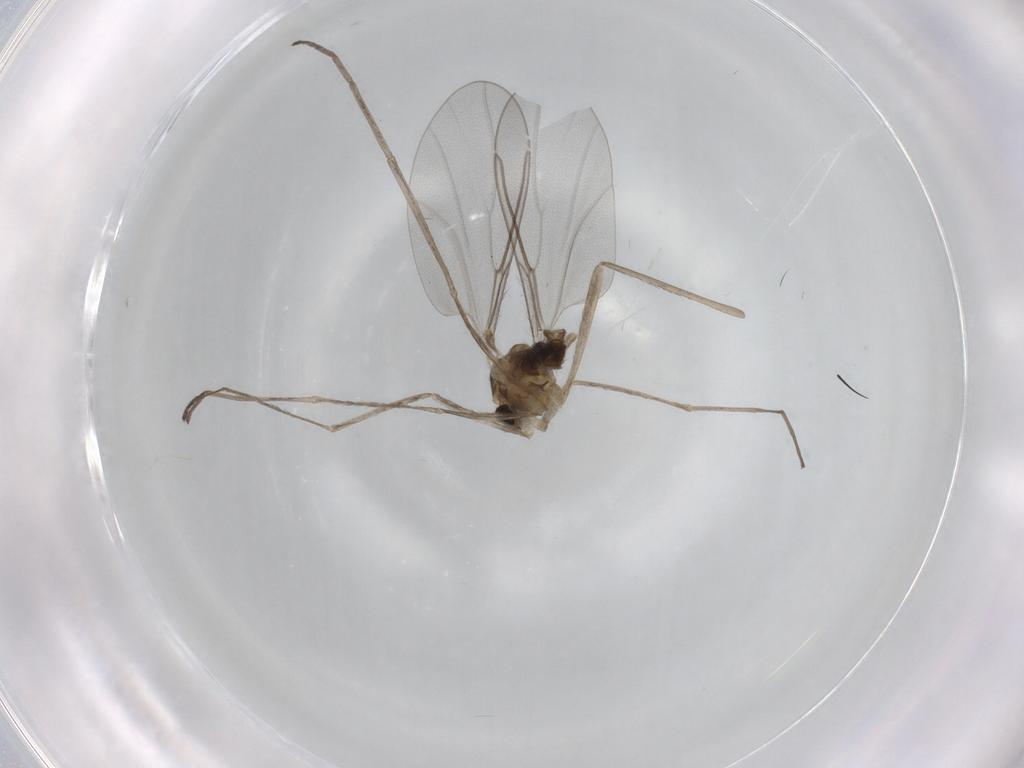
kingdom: Animalia
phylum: Arthropoda
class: Insecta
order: Diptera
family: Cecidomyiidae
